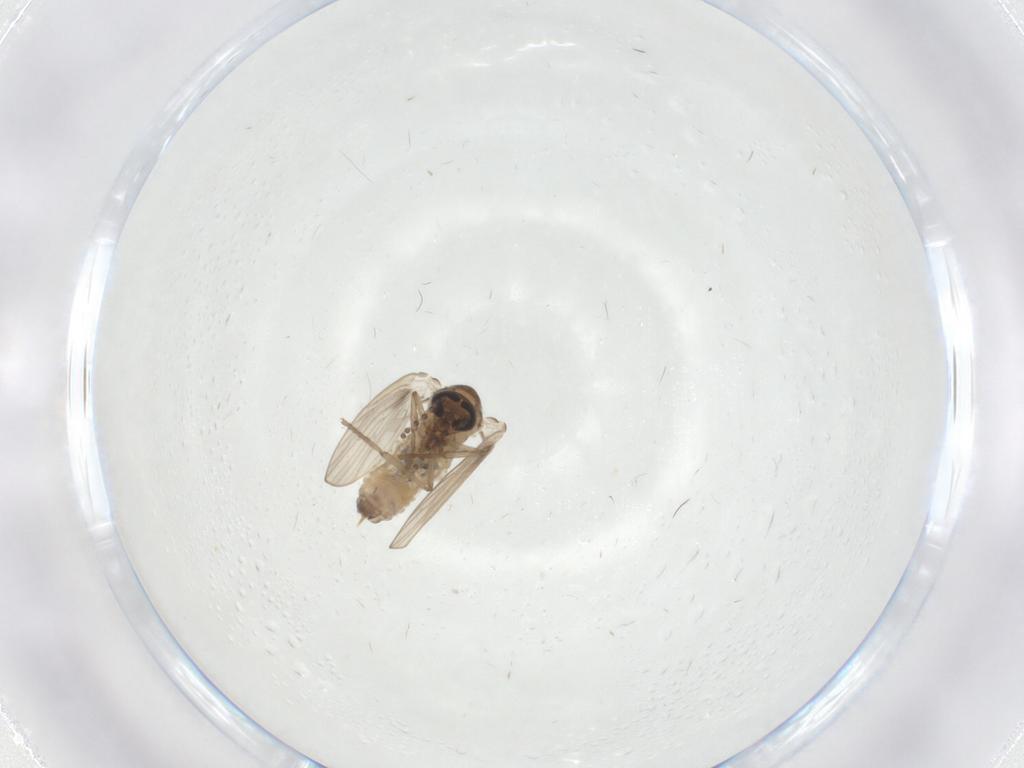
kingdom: Animalia
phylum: Arthropoda
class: Insecta
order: Diptera
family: Psychodidae
